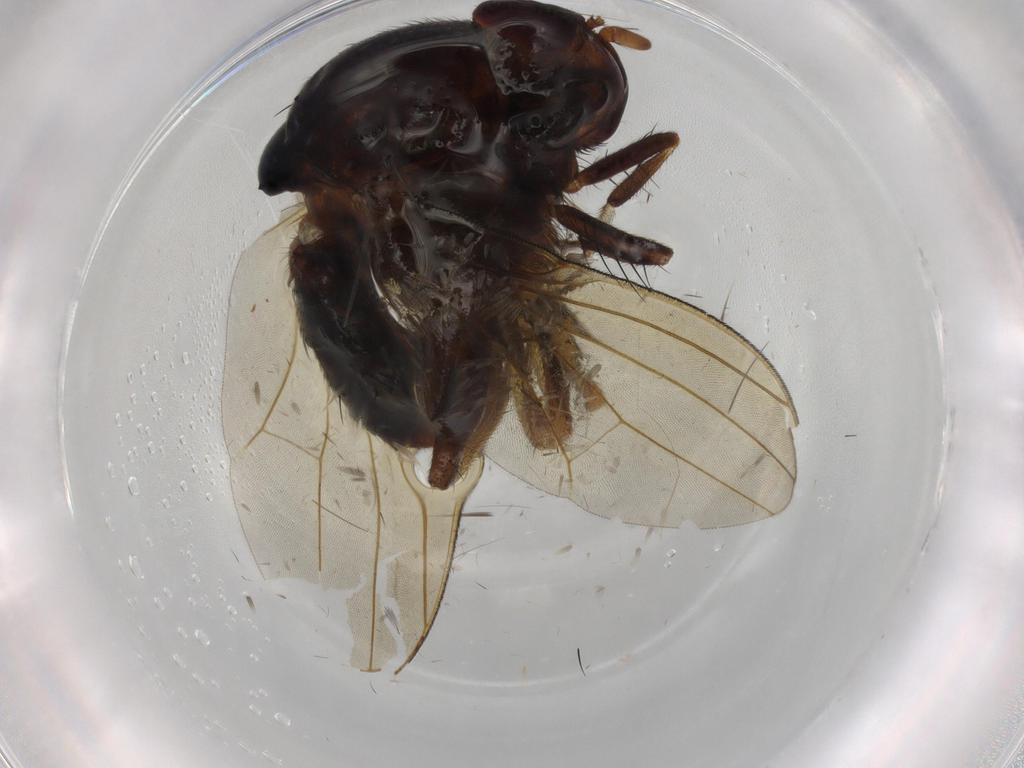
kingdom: Animalia
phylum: Arthropoda
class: Insecta
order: Diptera
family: Sciaridae
